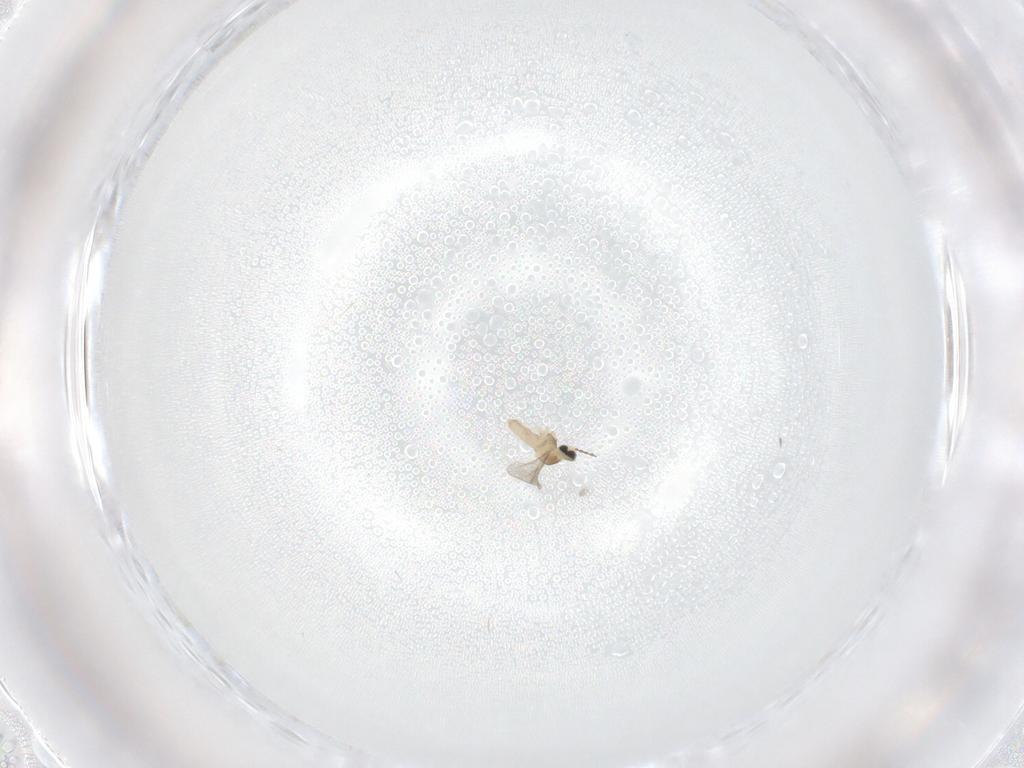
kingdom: Animalia
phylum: Arthropoda
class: Insecta
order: Diptera
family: Cecidomyiidae
